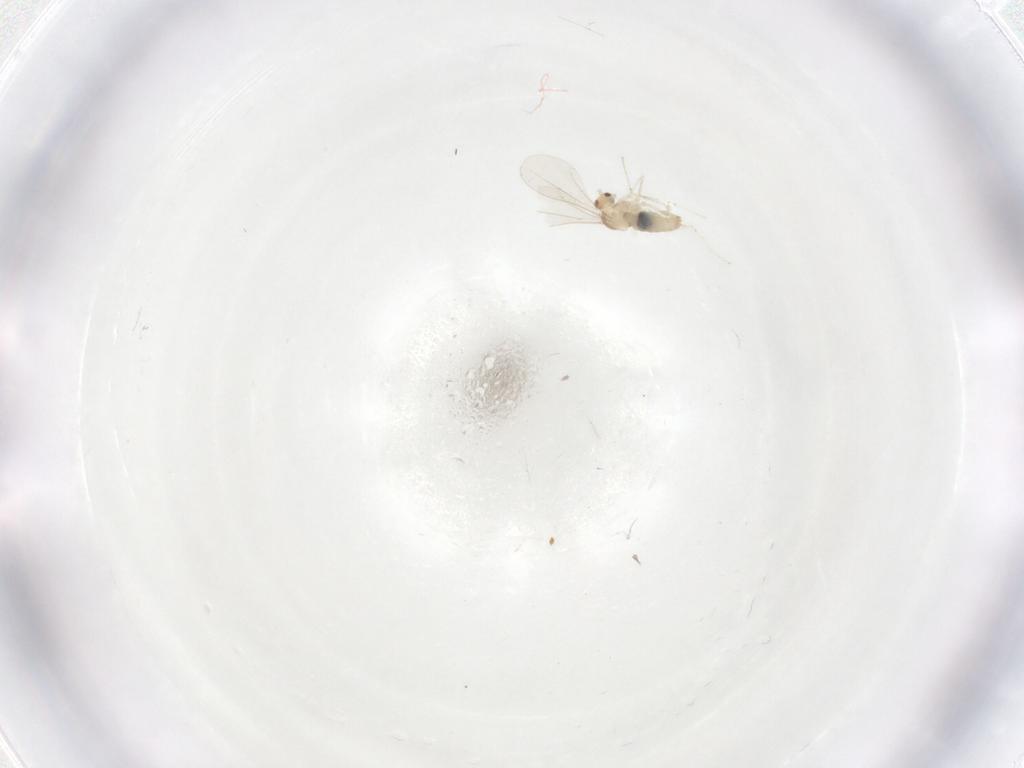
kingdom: Animalia
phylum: Arthropoda
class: Insecta
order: Diptera
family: Cecidomyiidae
